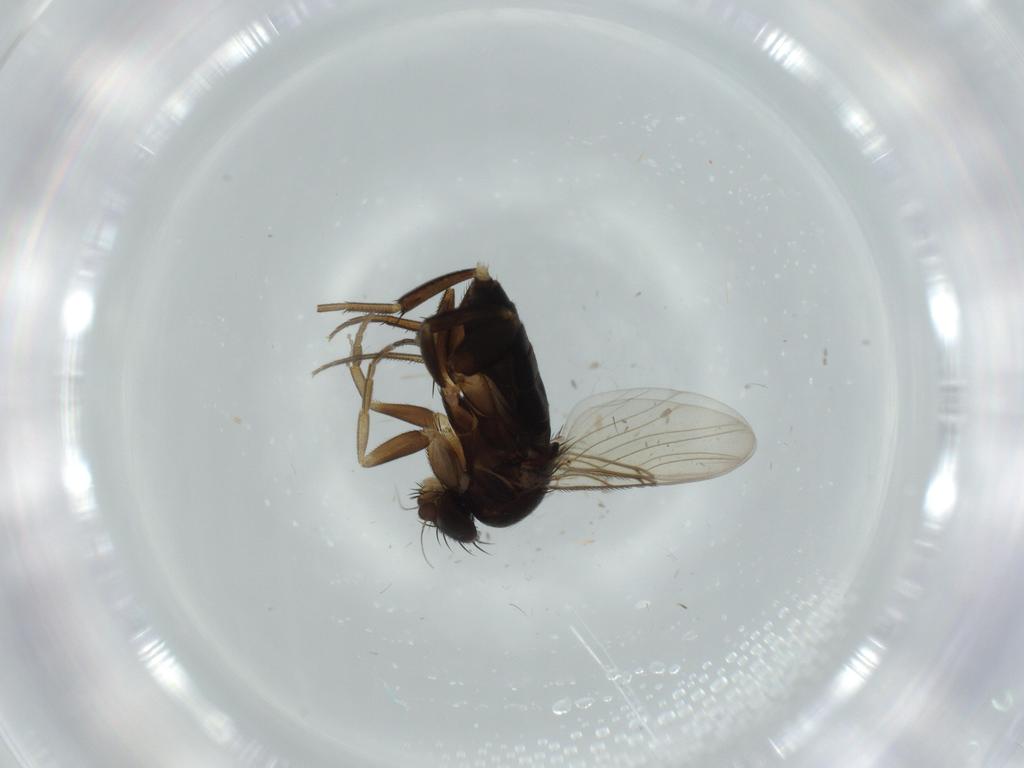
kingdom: Animalia
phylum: Arthropoda
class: Insecta
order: Diptera
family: Phoridae
